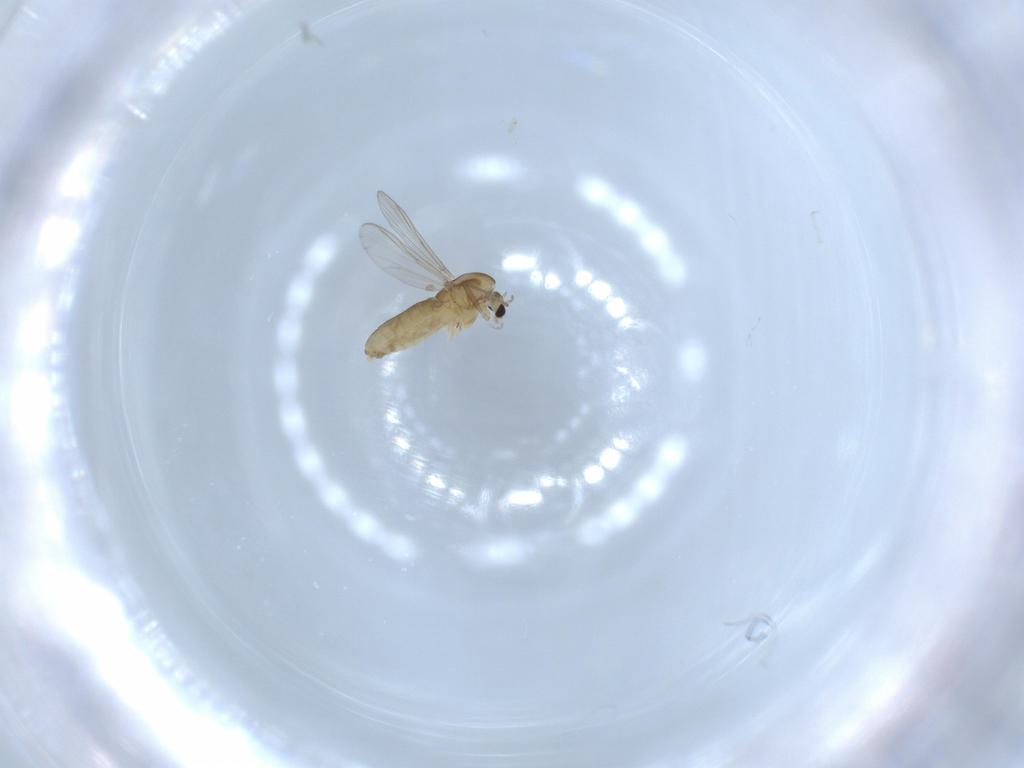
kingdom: Animalia
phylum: Arthropoda
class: Insecta
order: Diptera
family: Chironomidae
